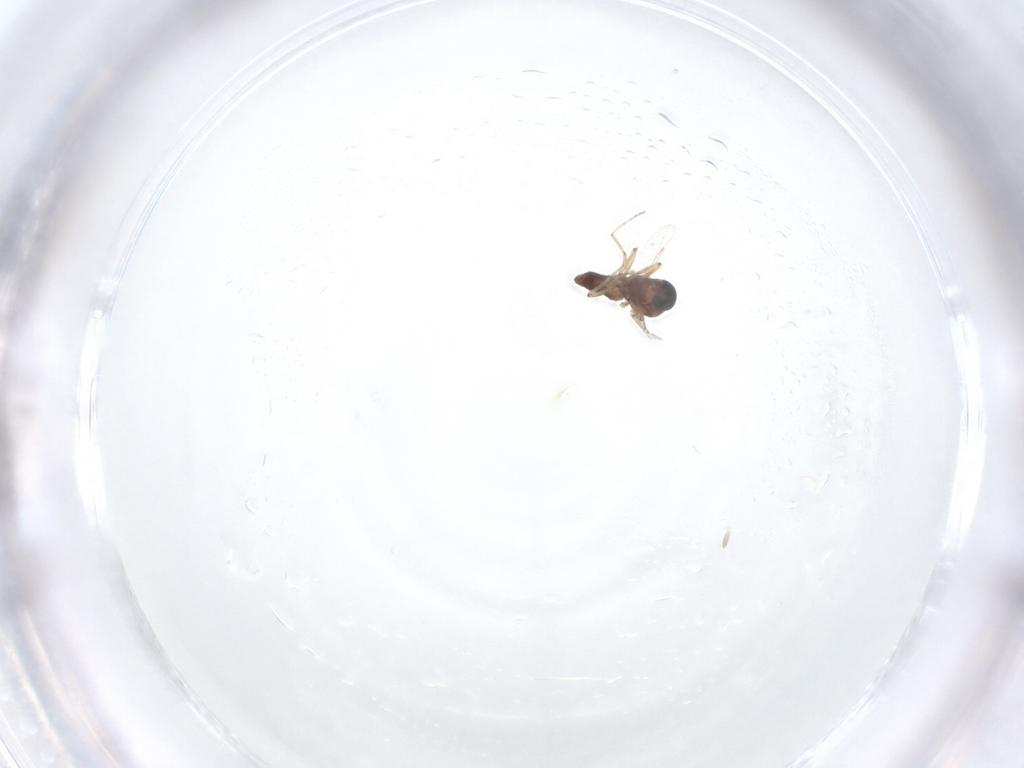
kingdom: Animalia
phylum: Arthropoda
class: Insecta
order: Diptera
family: Ceratopogonidae
